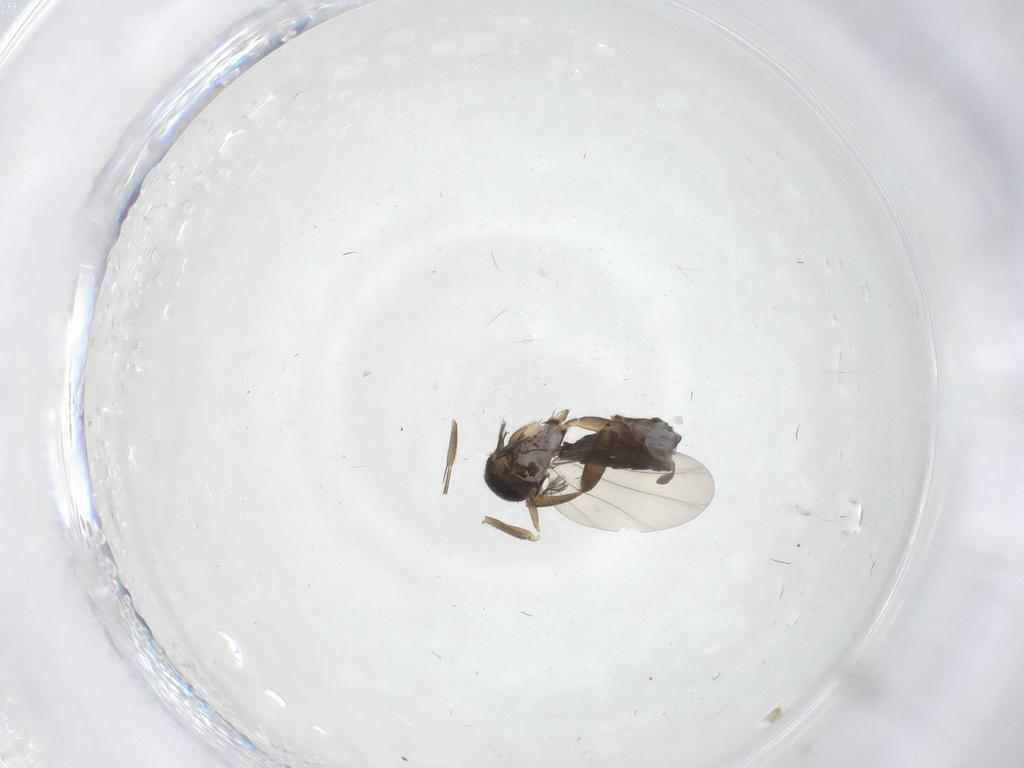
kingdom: Animalia
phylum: Arthropoda
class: Insecta
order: Diptera
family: Phoridae
